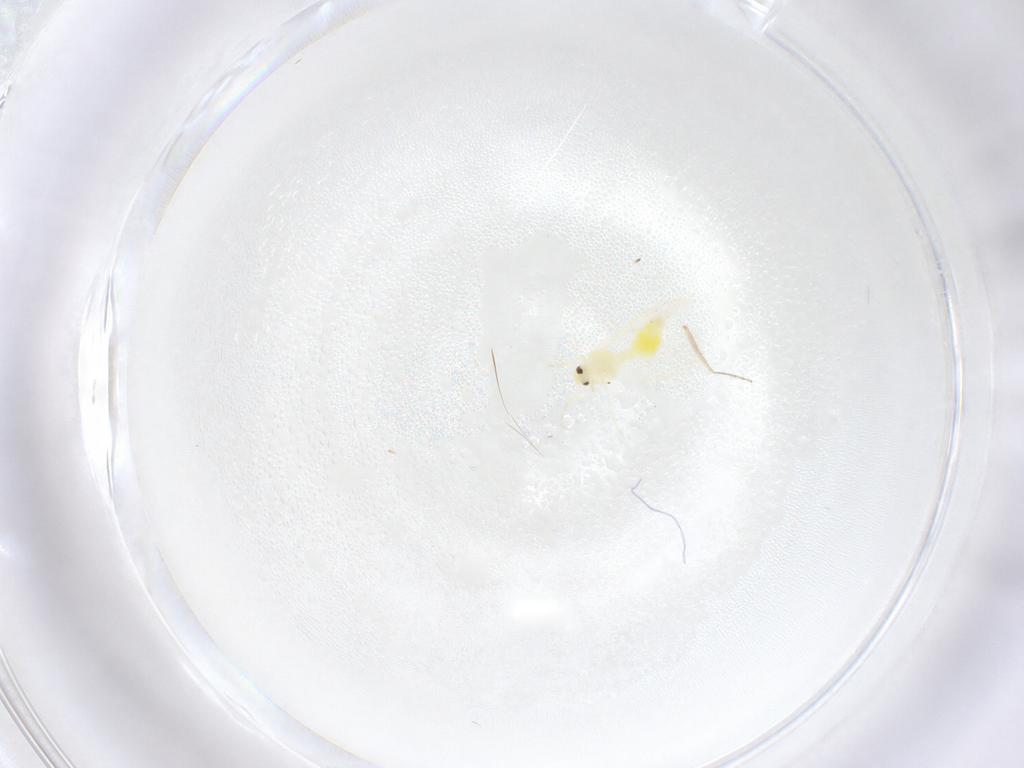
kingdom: Animalia
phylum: Arthropoda
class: Insecta
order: Hemiptera
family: Aleyrodidae
